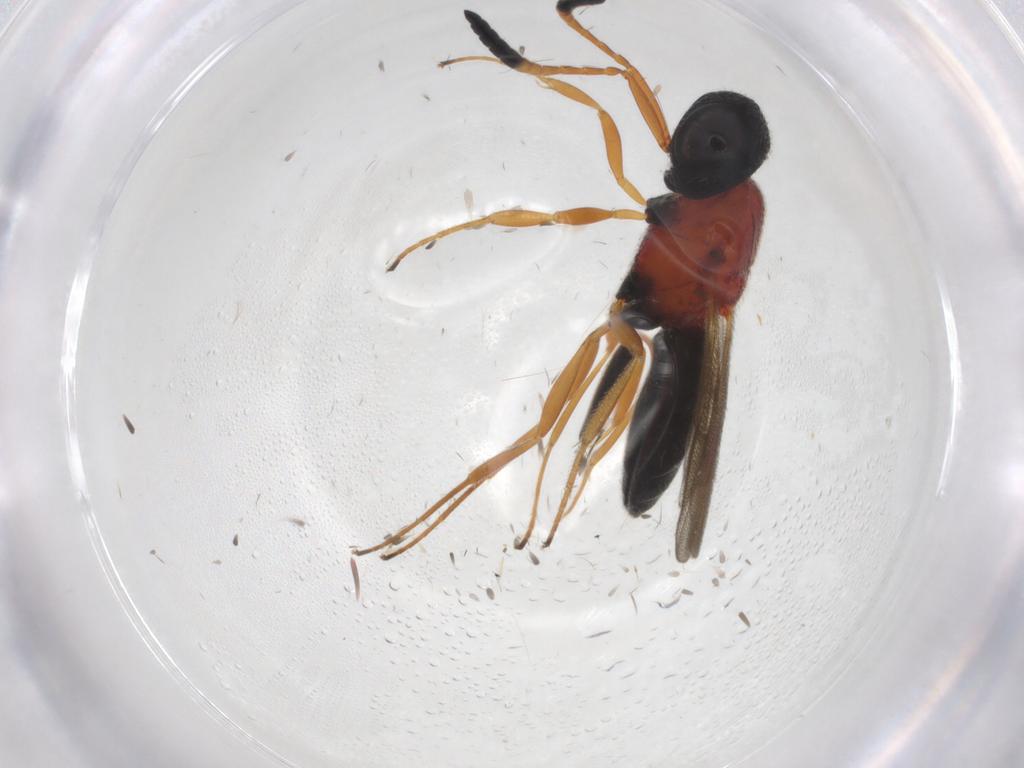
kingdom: Animalia
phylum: Arthropoda
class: Insecta
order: Hymenoptera
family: Scelionidae
